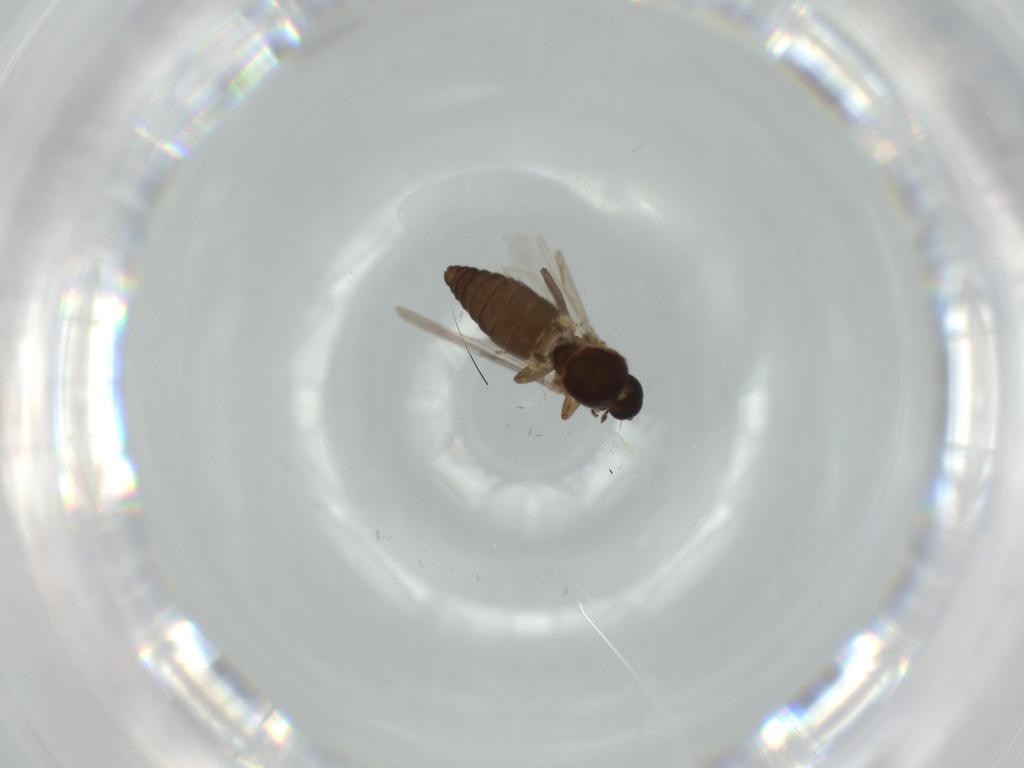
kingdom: Animalia
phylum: Arthropoda
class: Insecta
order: Diptera
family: Ceratopogonidae
